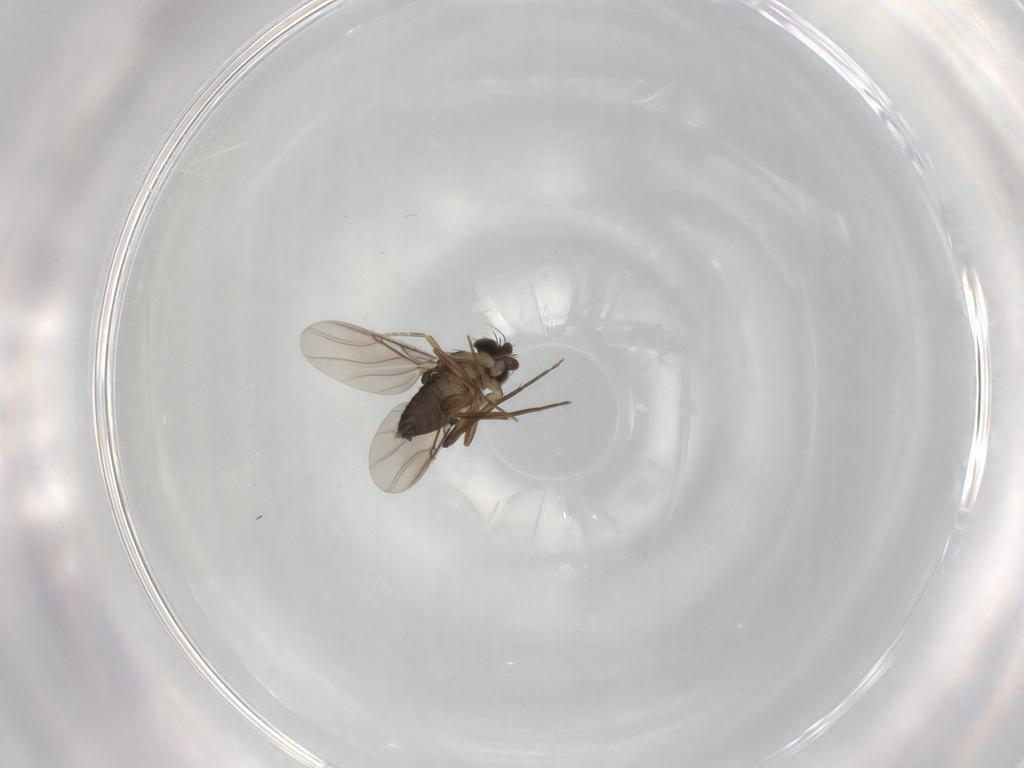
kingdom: Animalia
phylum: Arthropoda
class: Insecta
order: Diptera
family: Phoridae
